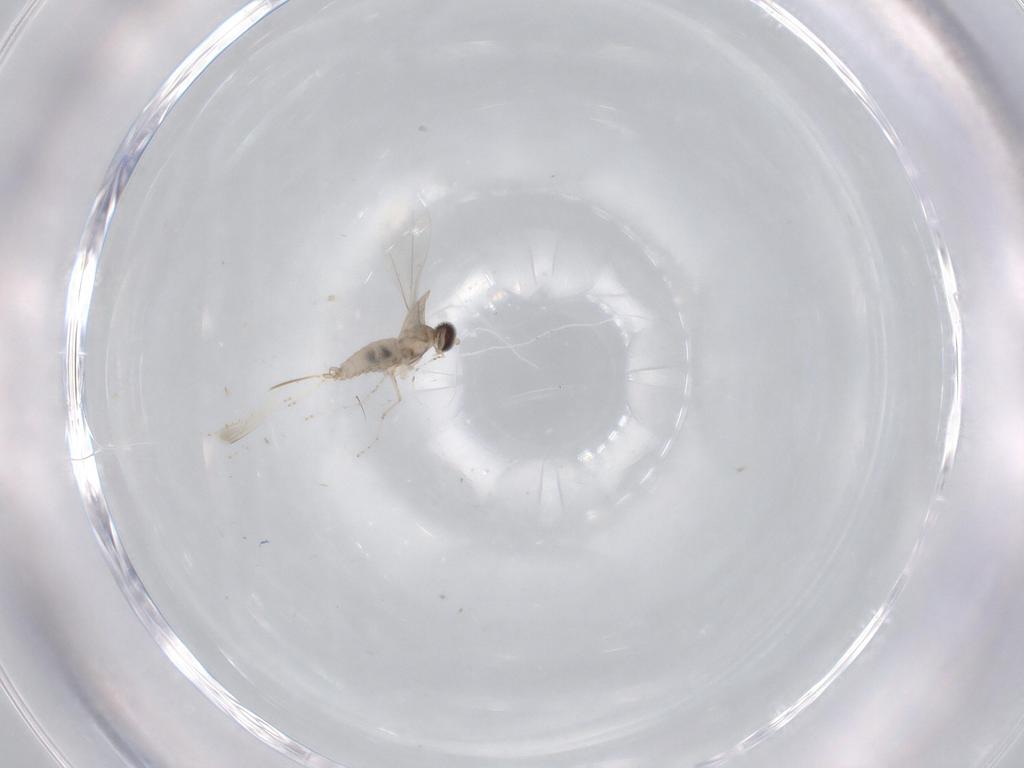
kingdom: Animalia
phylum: Arthropoda
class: Insecta
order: Diptera
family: Cecidomyiidae
